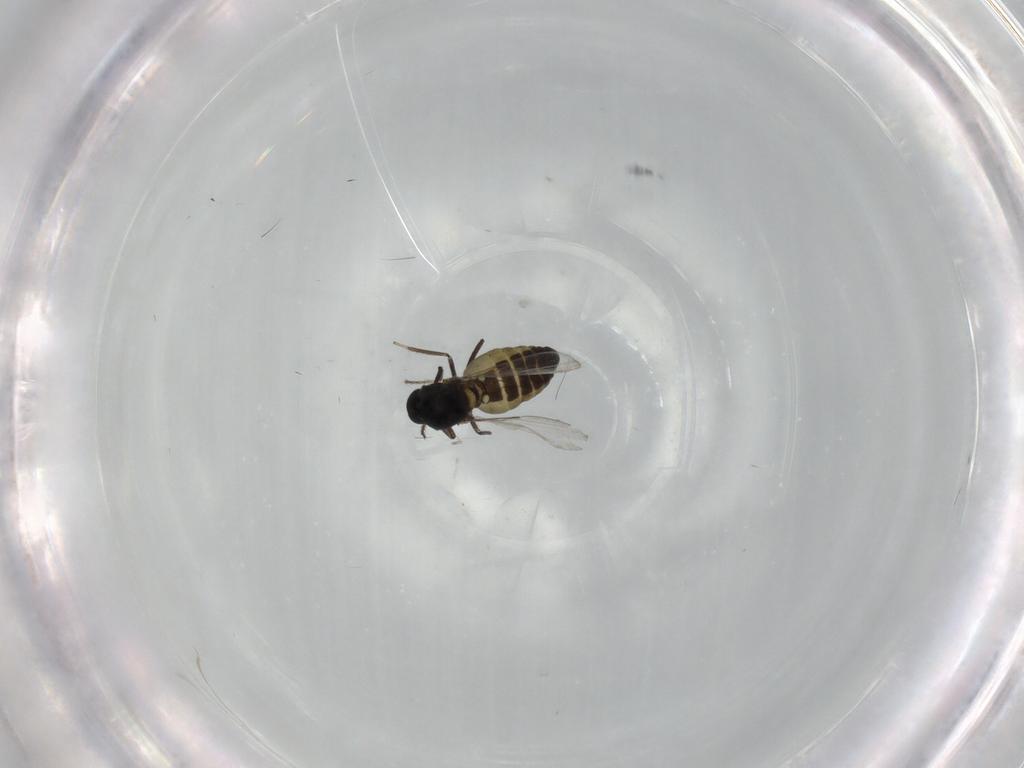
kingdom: Animalia
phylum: Arthropoda
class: Insecta
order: Diptera
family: Ceratopogonidae
